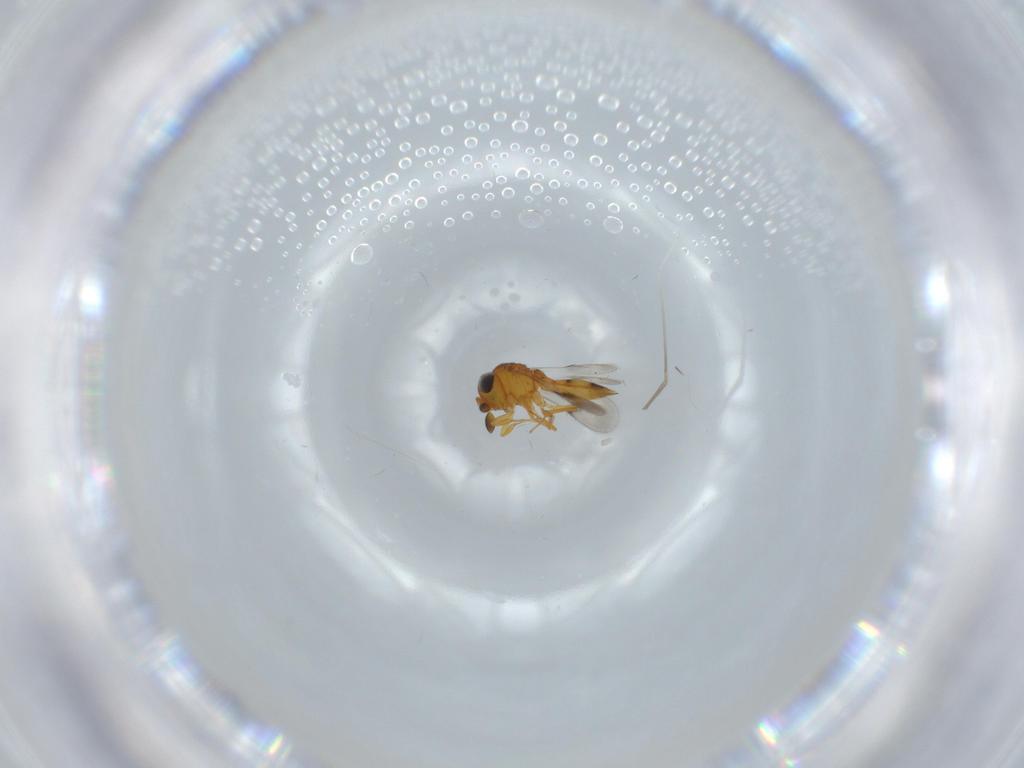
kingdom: Animalia
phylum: Arthropoda
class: Insecta
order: Hymenoptera
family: Scelionidae
